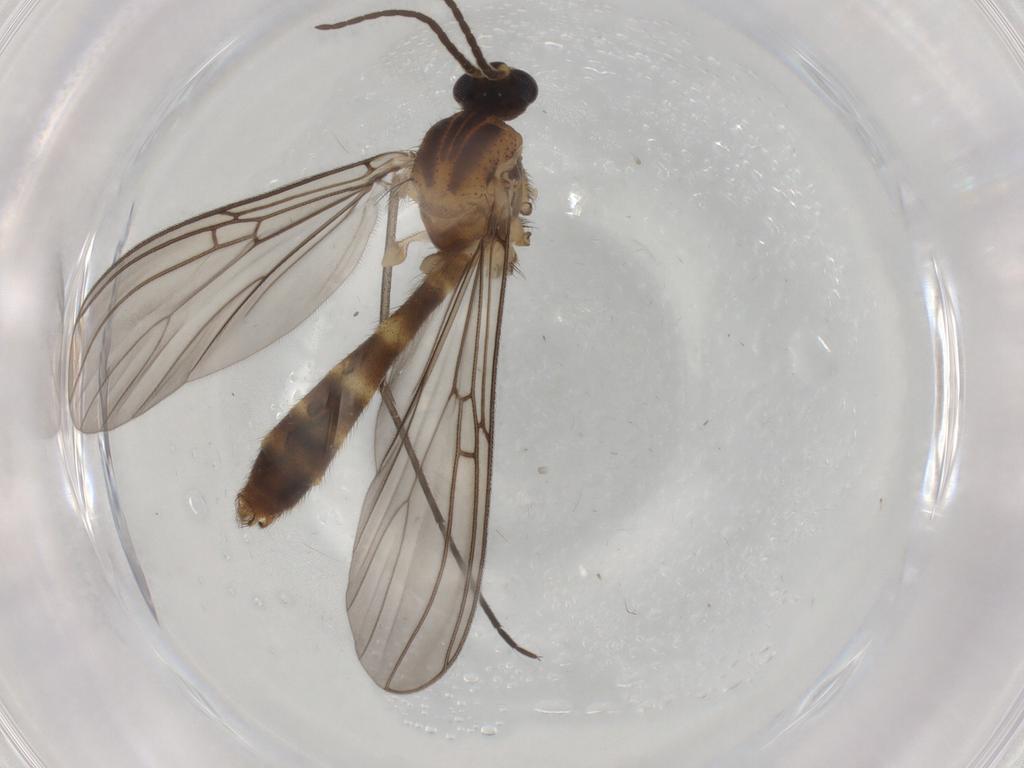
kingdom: Animalia
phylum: Arthropoda
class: Insecta
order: Diptera
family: Mycetophilidae
